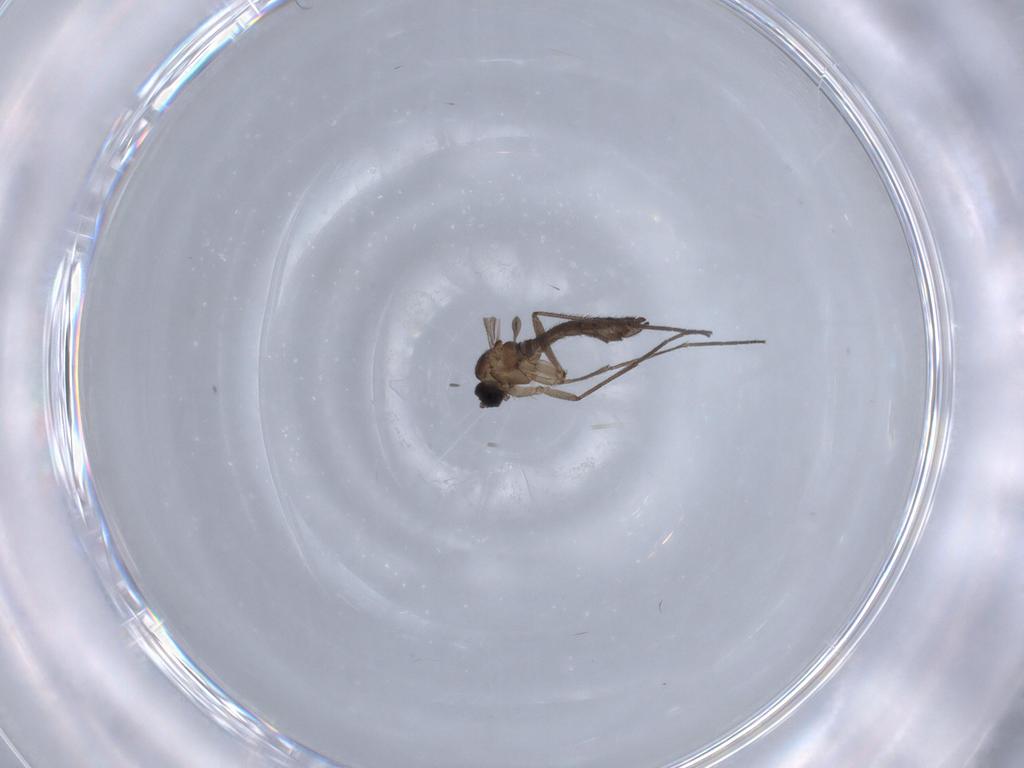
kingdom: Animalia
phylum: Arthropoda
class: Insecta
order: Diptera
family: Sciaridae
